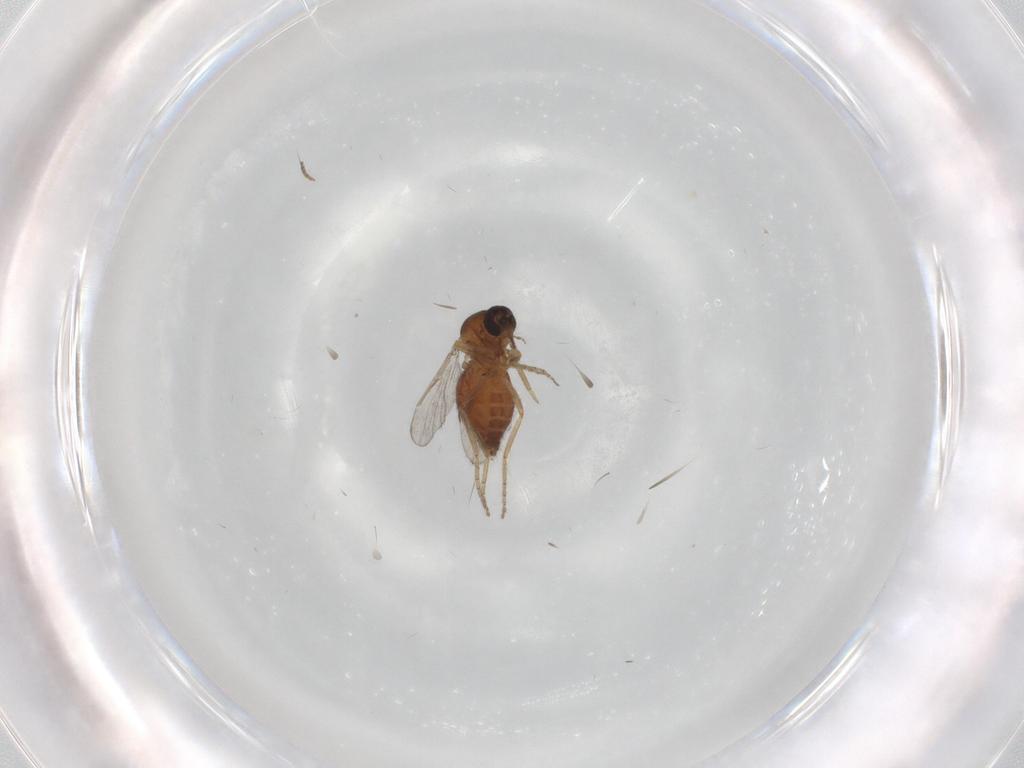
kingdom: Animalia
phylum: Arthropoda
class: Insecta
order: Diptera
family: Ceratopogonidae
